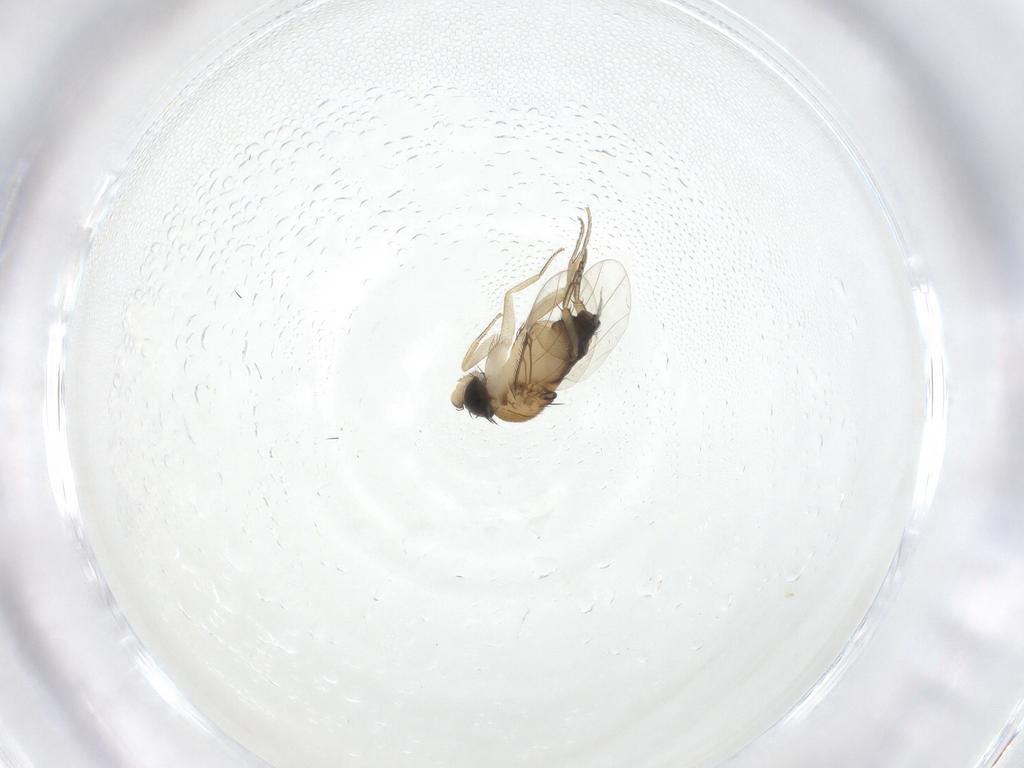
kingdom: Animalia
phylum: Arthropoda
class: Insecta
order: Diptera
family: Phoridae
